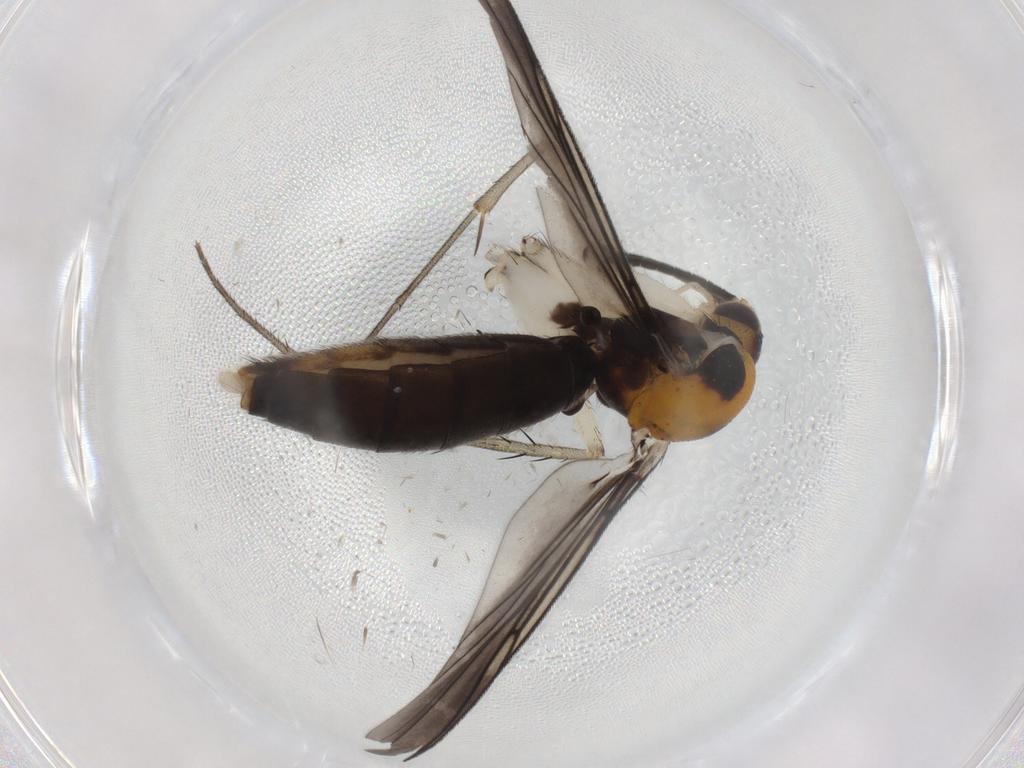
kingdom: Animalia
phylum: Arthropoda
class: Insecta
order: Diptera
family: Mycetophilidae
